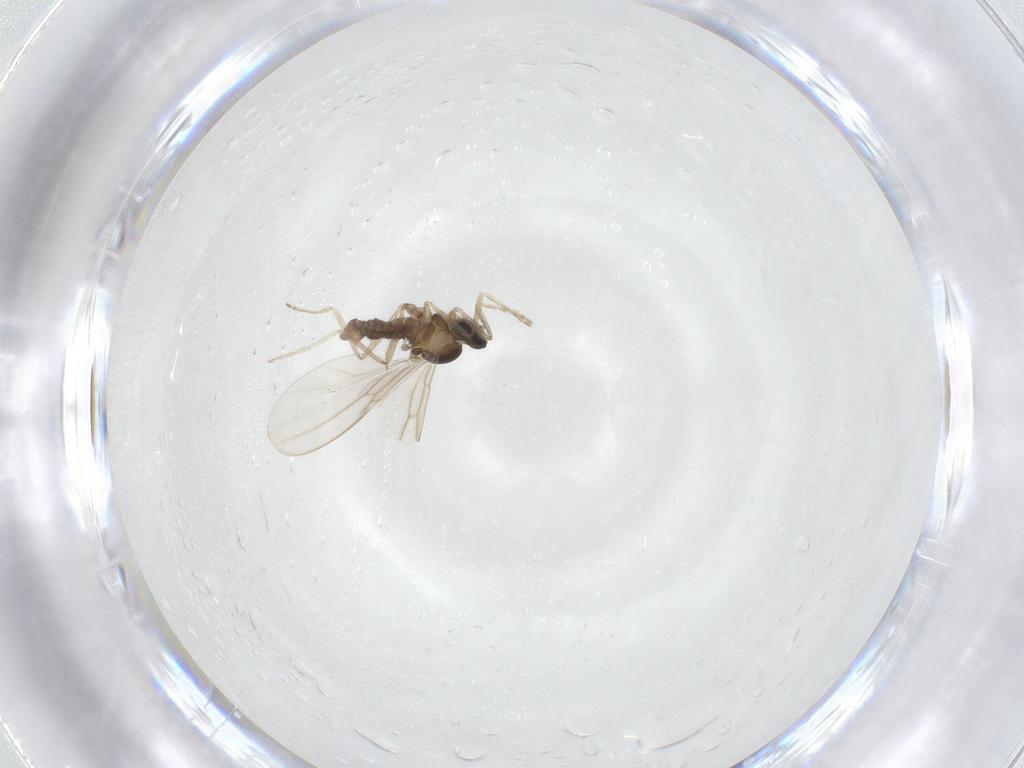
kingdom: Animalia
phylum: Arthropoda
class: Insecta
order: Diptera
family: Cecidomyiidae
